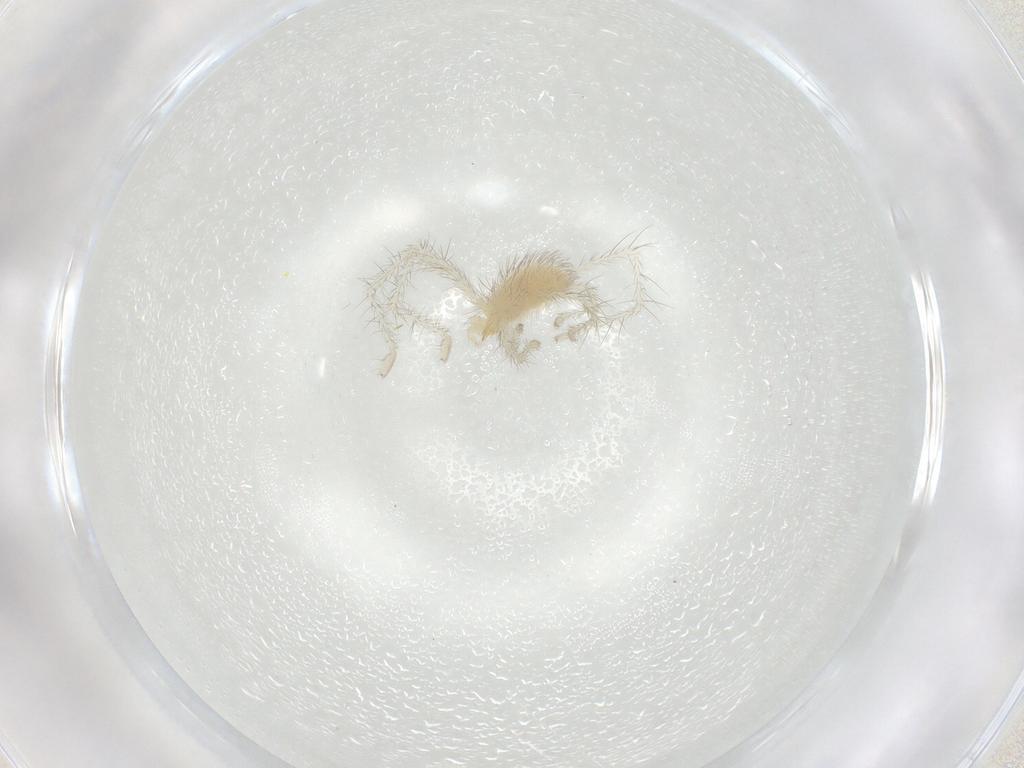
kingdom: Animalia
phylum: Arthropoda
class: Arachnida
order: Trombidiformes
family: Tetranychidae
